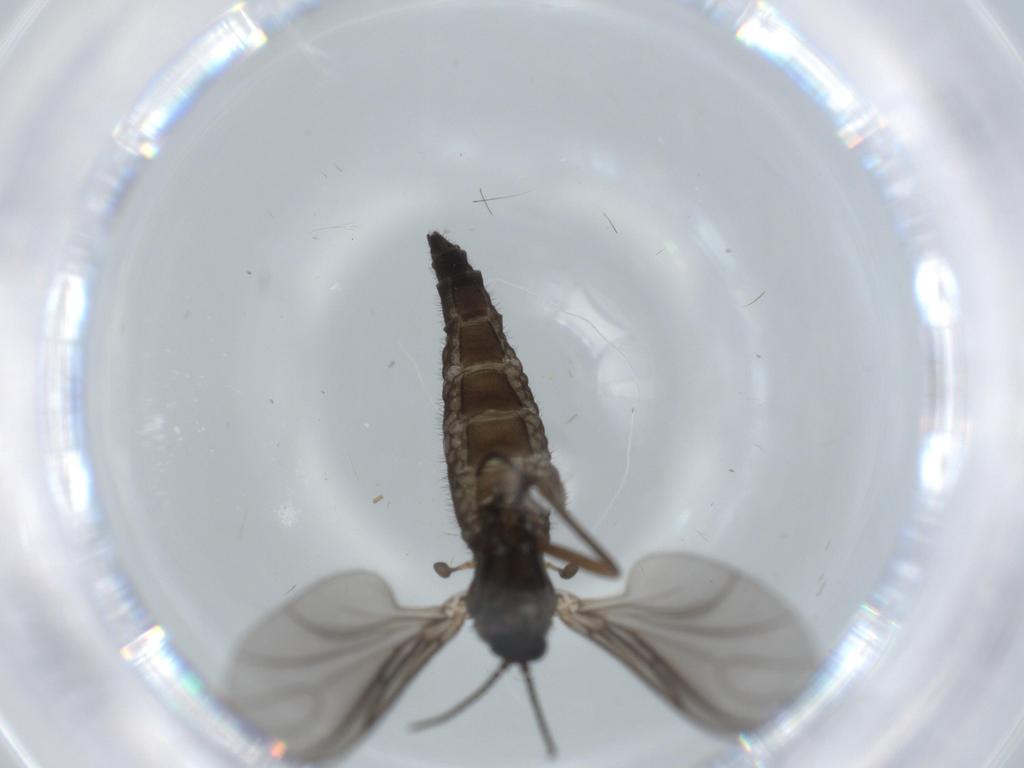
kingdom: Animalia
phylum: Arthropoda
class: Insecta
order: Diptera
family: Sciaridae
